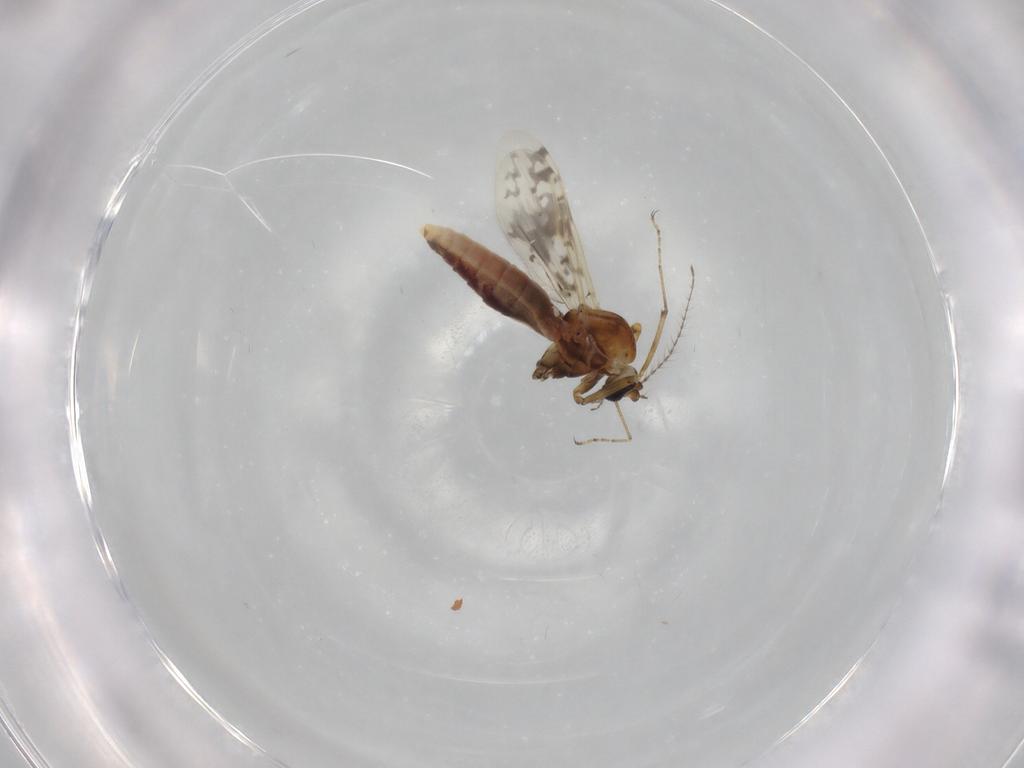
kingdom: Animalia
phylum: Arthropoda
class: Insecta
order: Diptera
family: Ceratopogonidae
